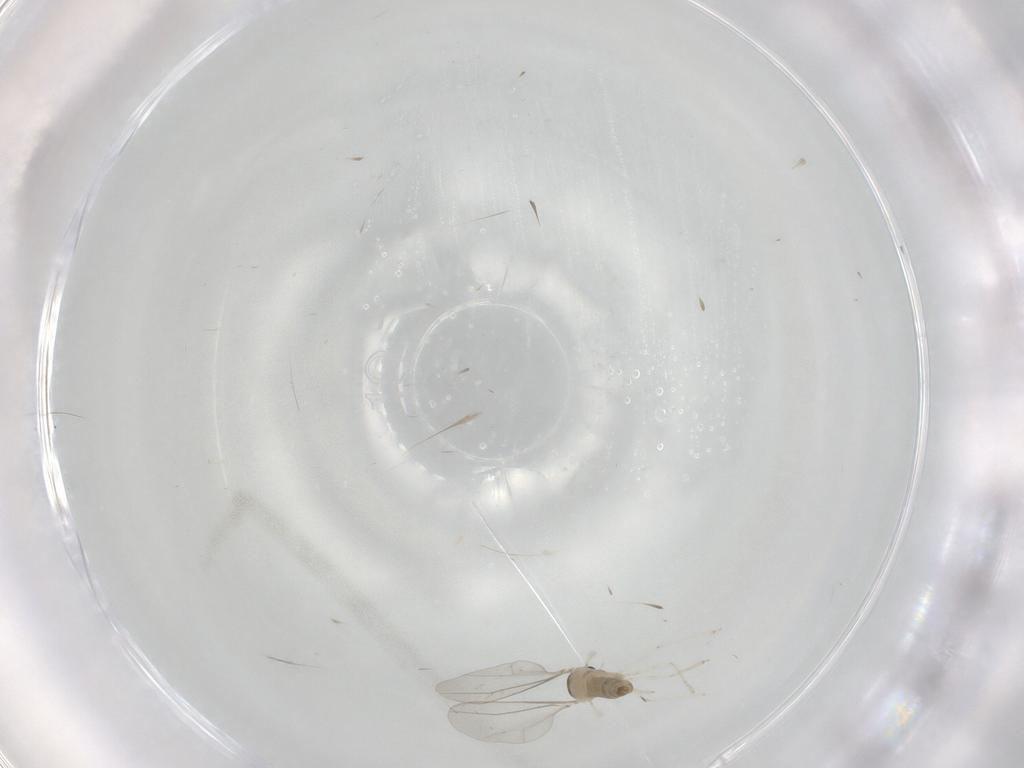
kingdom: Animalia
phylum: Arthropoda
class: Insecta
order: Diptera
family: Cecidomyiidae
